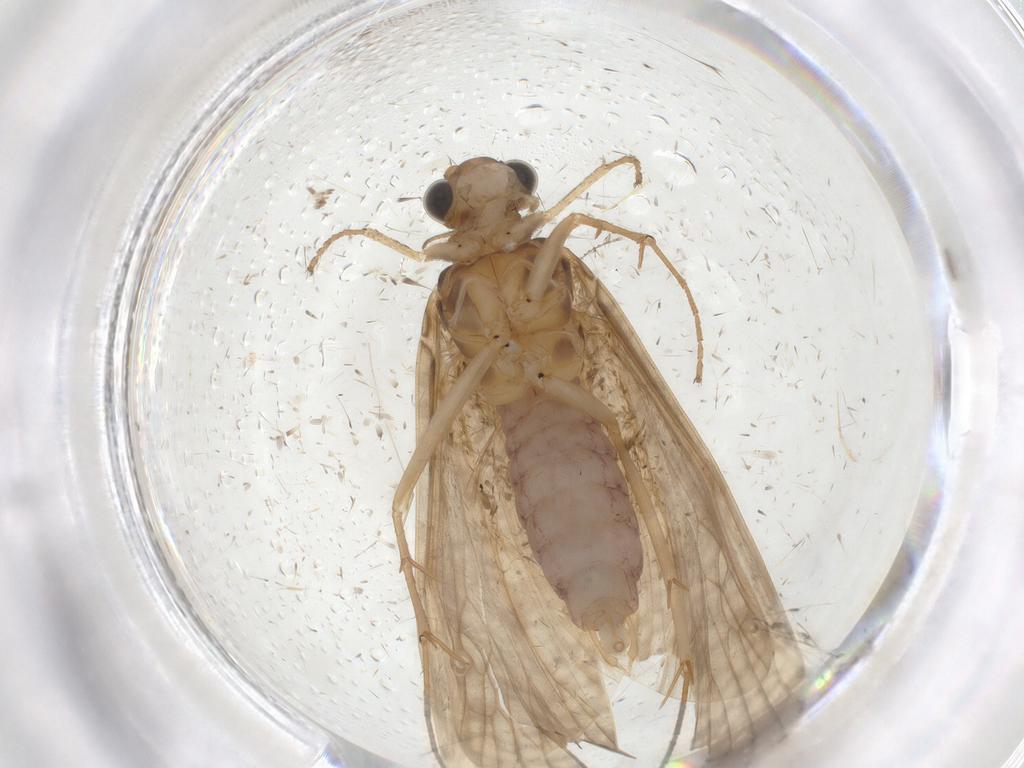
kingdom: Animalia
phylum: Arthropoda
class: Insecta
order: Trichoptera
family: Hydropsychidae
